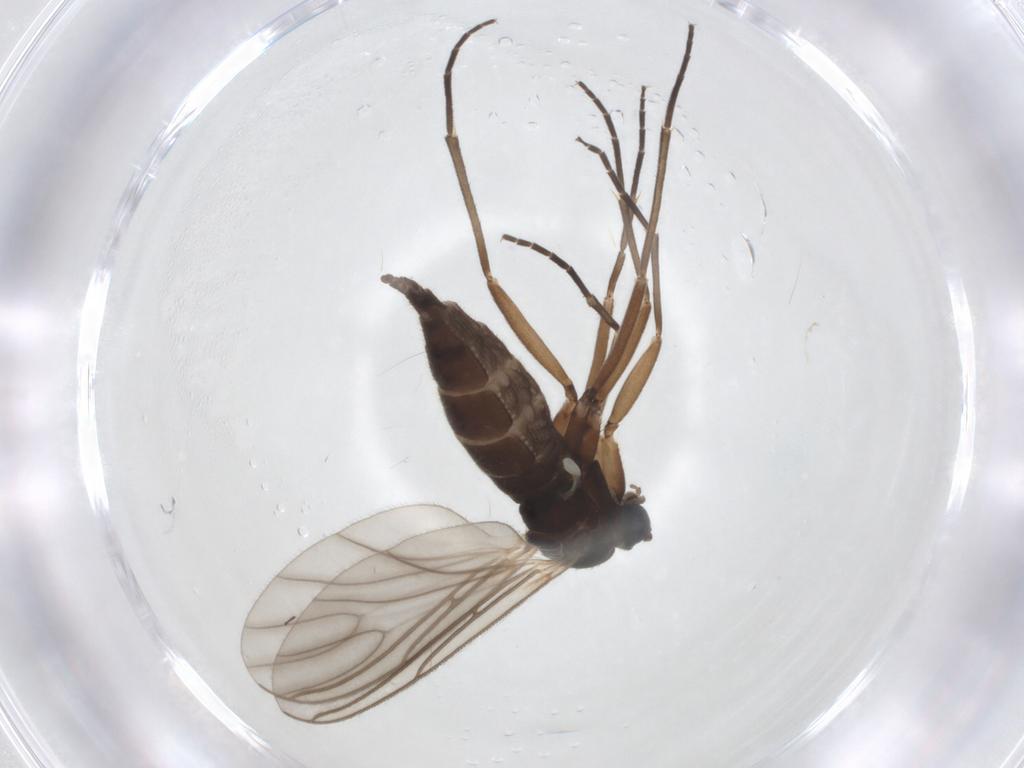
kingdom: Animalia
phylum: Arthropoda
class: Insecta
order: Diptera
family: Sciaridae
